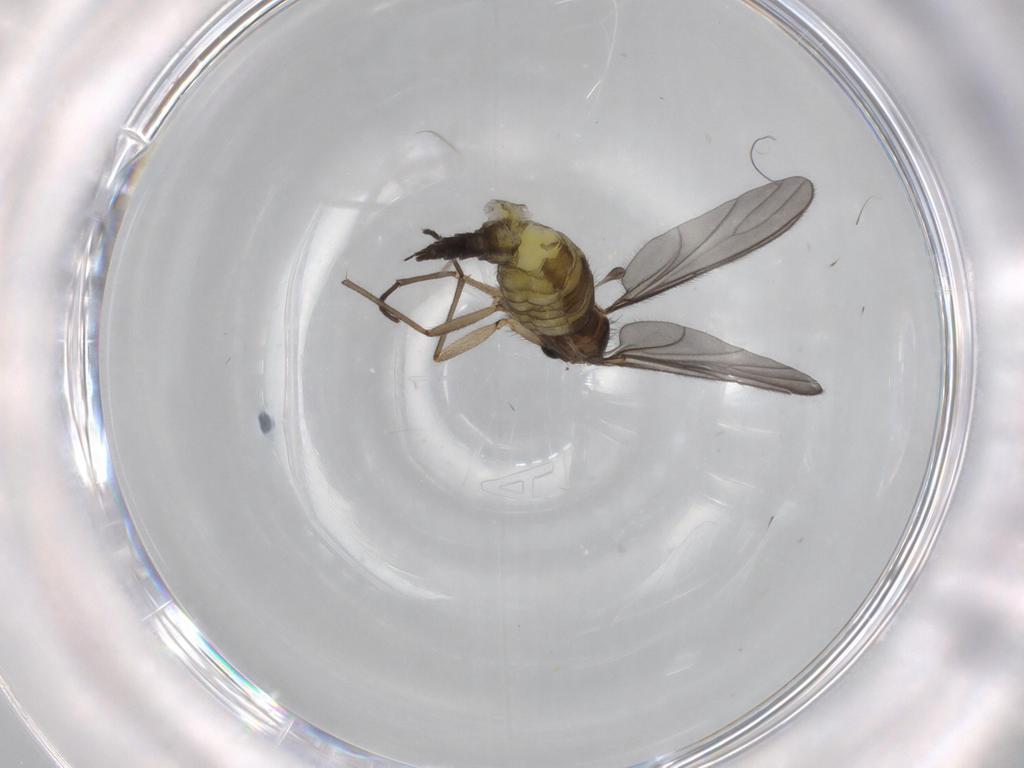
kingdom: Animalia
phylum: Arthropoda
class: Insecta
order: Diptera
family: Sciaridae
